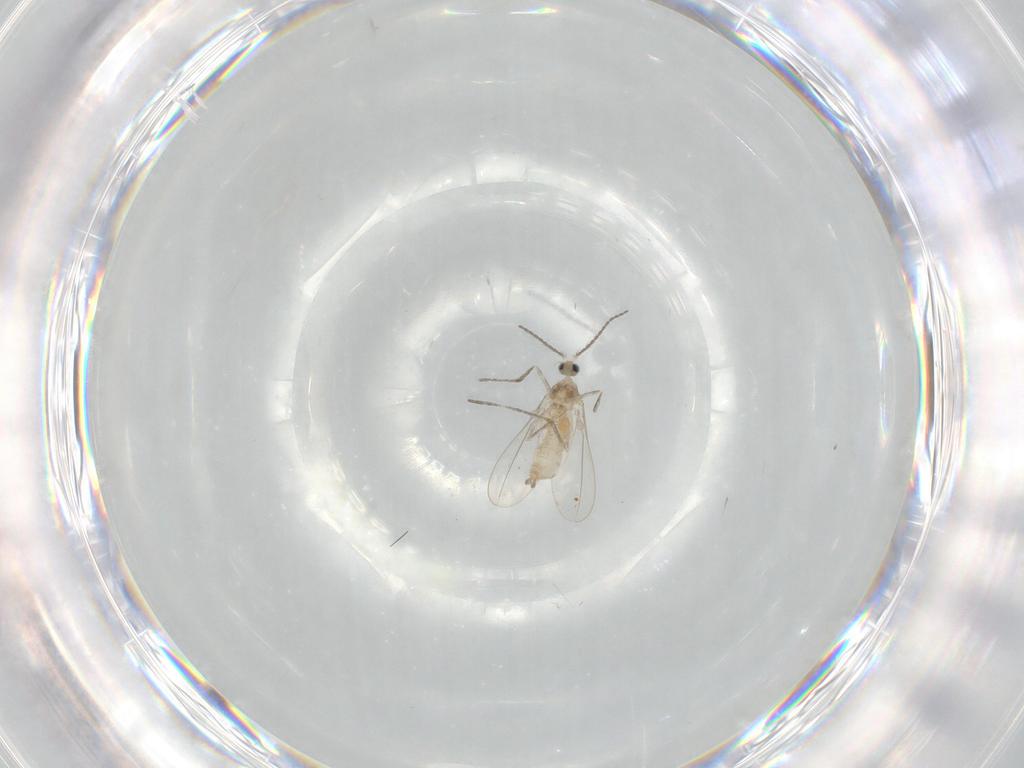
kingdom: Animalia
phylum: Arthropoda
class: Insecta
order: Diptera
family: Cecidomyiidae
